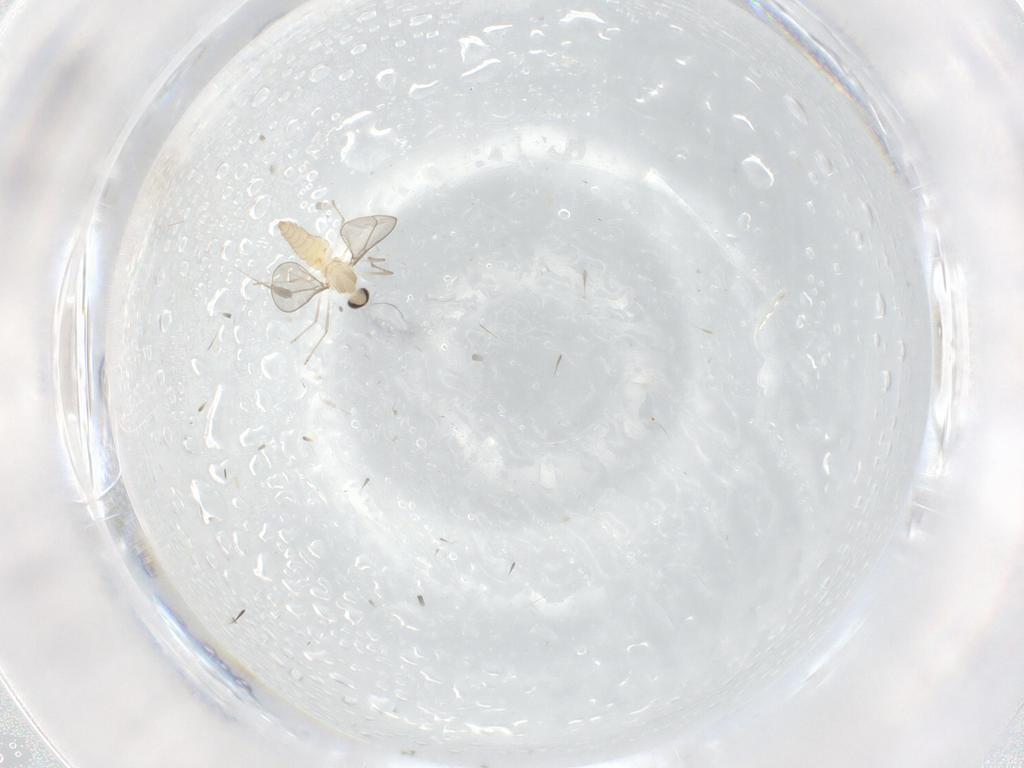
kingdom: Animalia
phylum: Arthropoda
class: Insecta
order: Diptera
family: Cecidomyiidae
